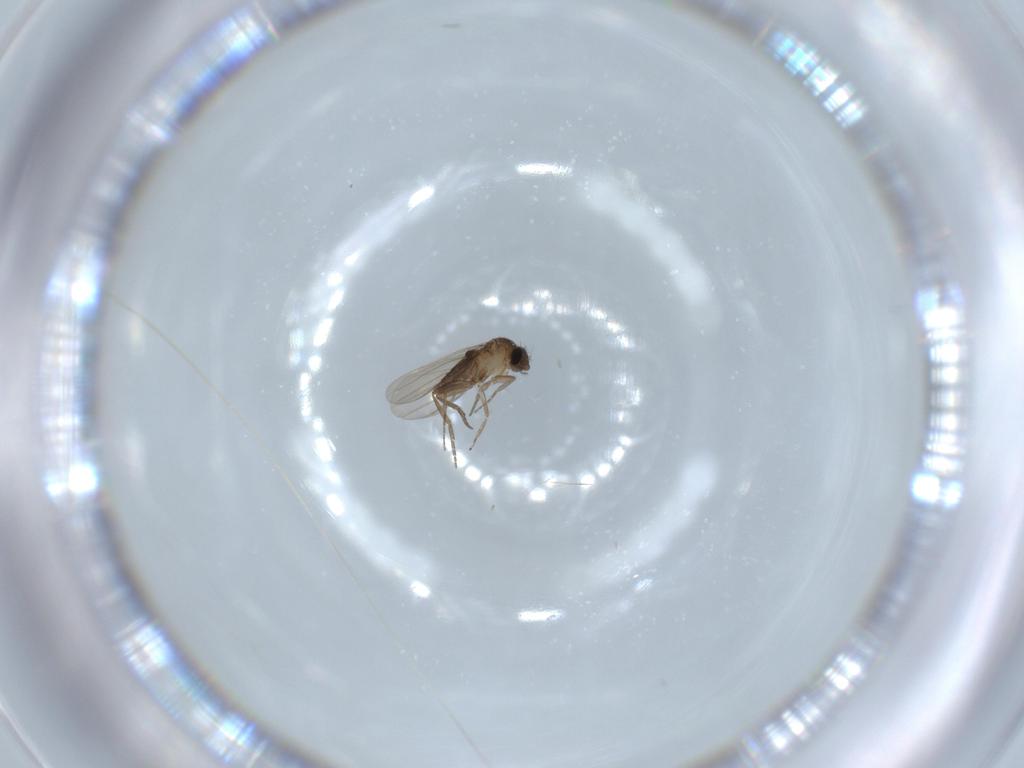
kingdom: Animalia
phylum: Arthropoda
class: Insecta
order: Diptera
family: Phoridae
